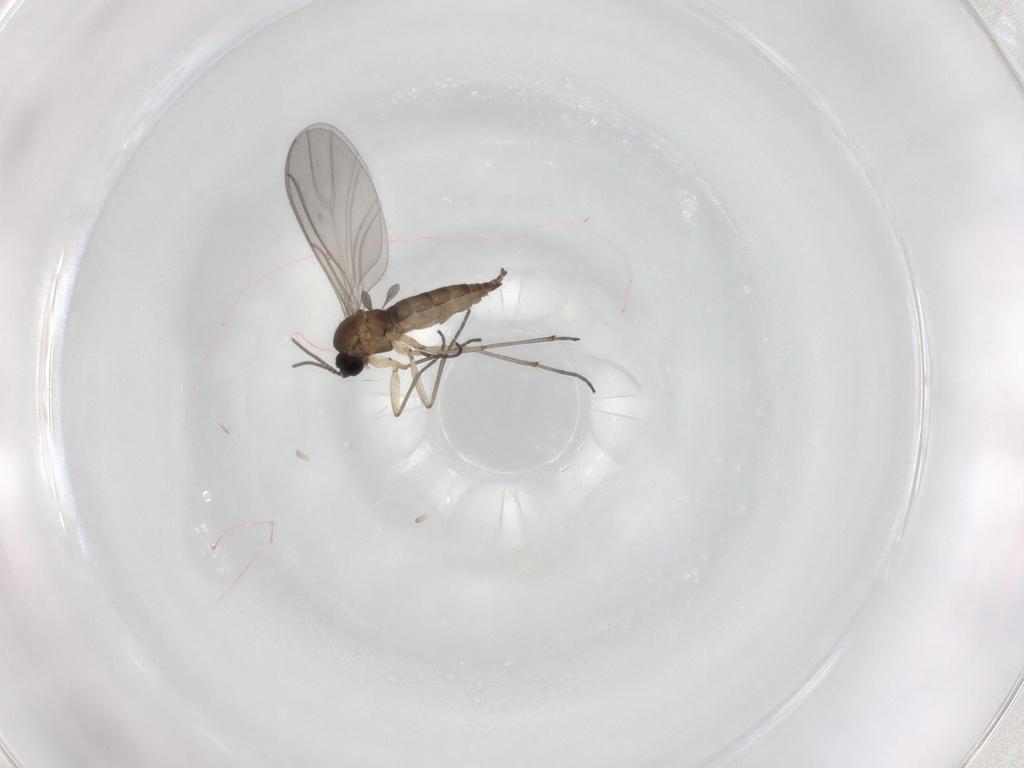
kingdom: Animalia
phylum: Arthropoda
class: Insecta
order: Diptera
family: Sciaridae
